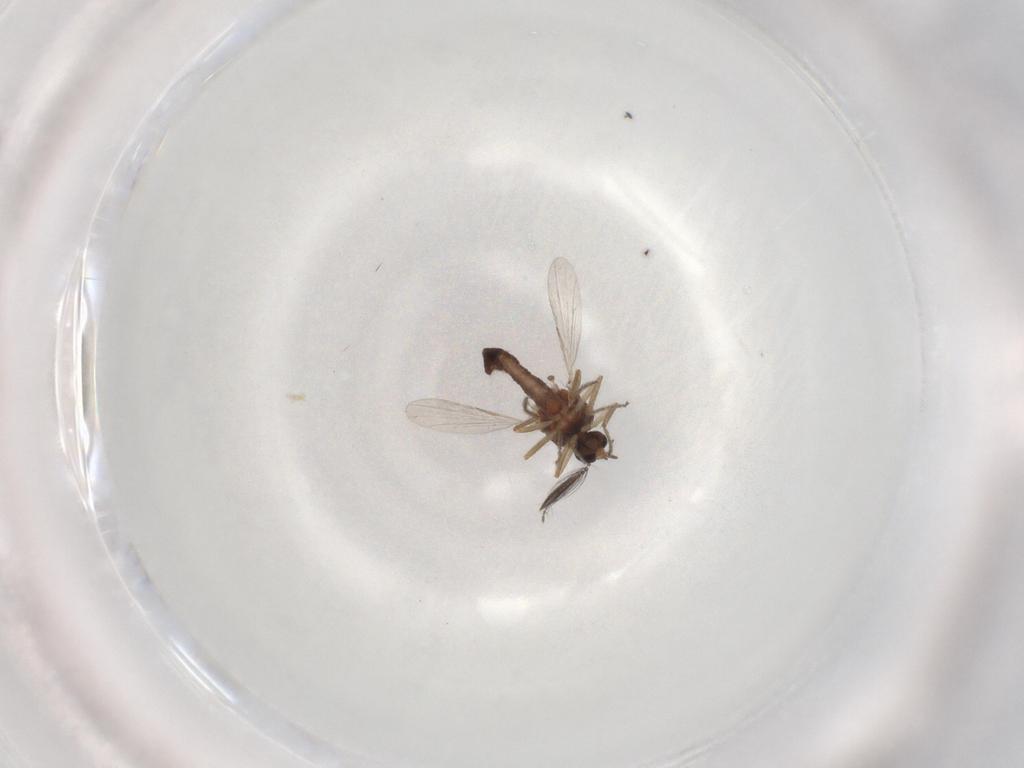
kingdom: Animalia
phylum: Arthropoda
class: Insecta
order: Diptera
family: Ceratopogonidae
